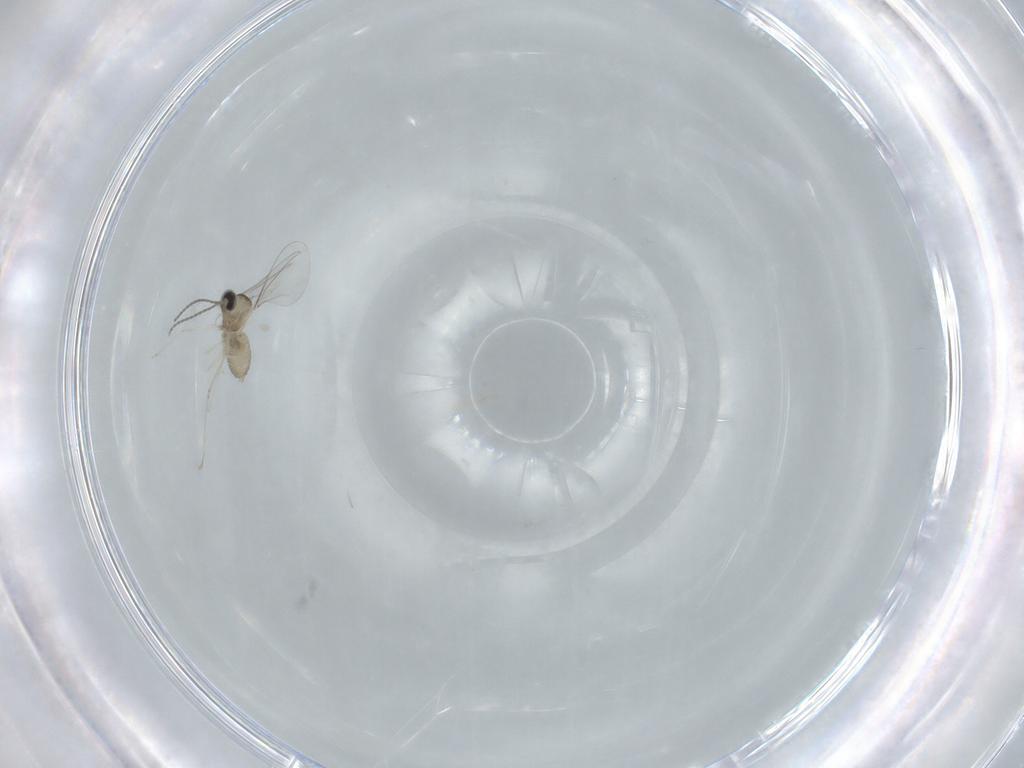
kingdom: Animalia
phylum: Arthropoda
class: Insecta
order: Diptera
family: Cecidomyiidae
